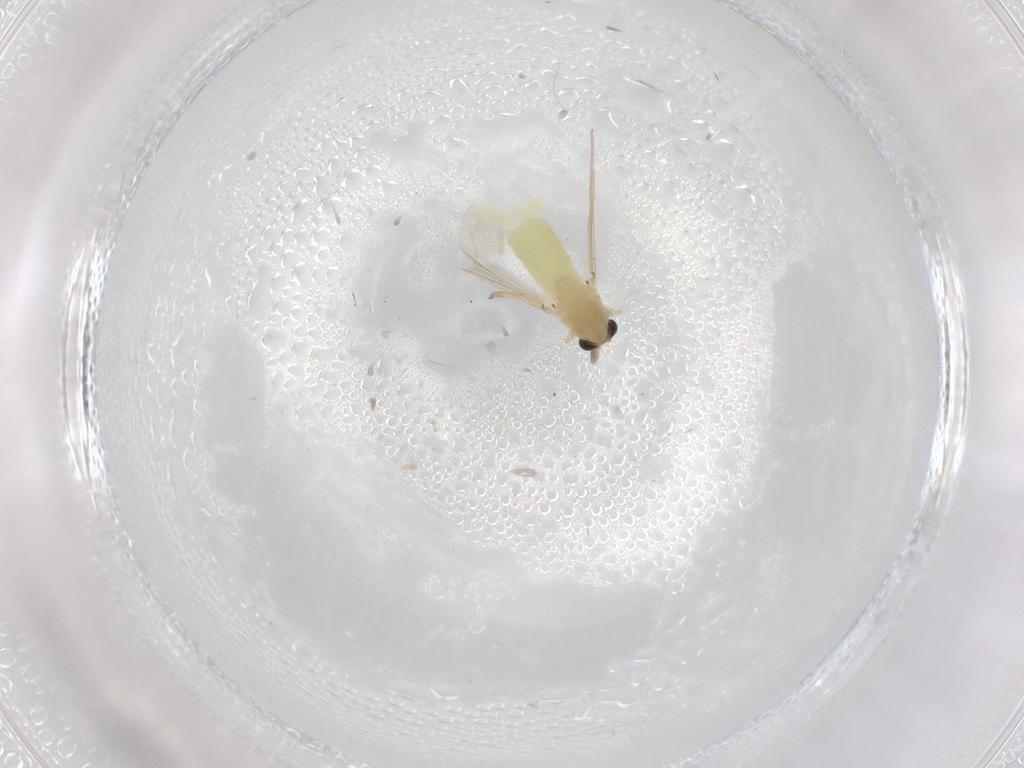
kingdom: Animalia
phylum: Arthropoda
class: Insecta
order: Diptera
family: Chironomidae
